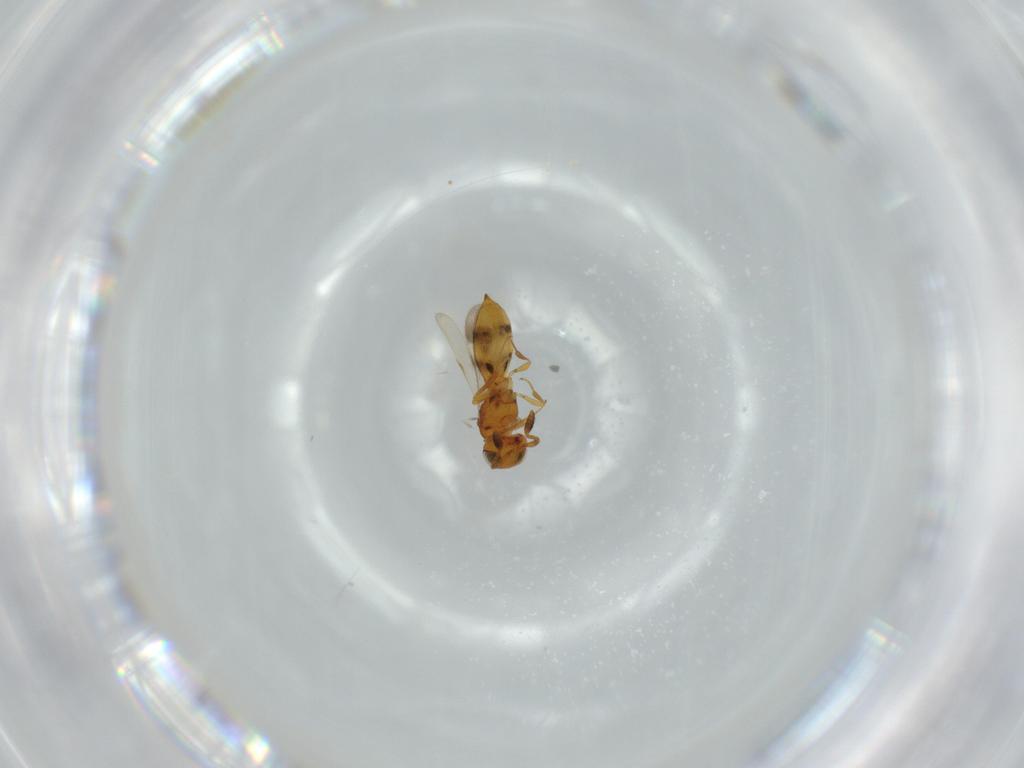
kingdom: Animalia
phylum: Arthropoda
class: Insecta
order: Hymenoptera
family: Scelionidae
